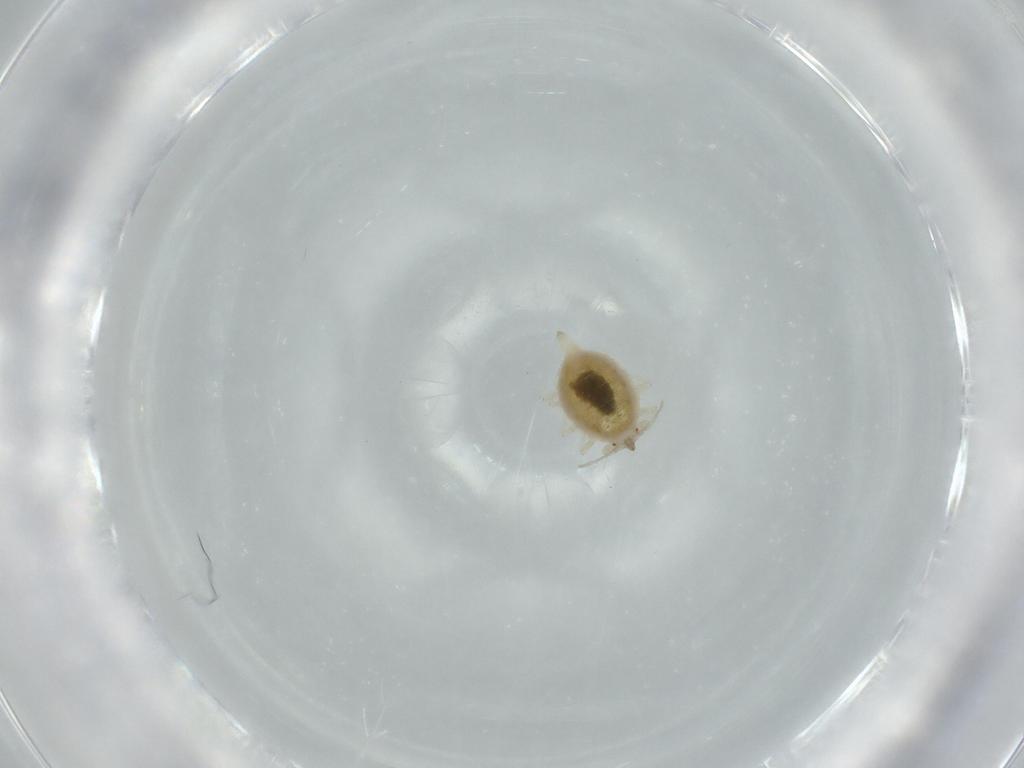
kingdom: Animalia
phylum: Arthropoda
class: Insecta
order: Neuroptera
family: Coniopterygidae
